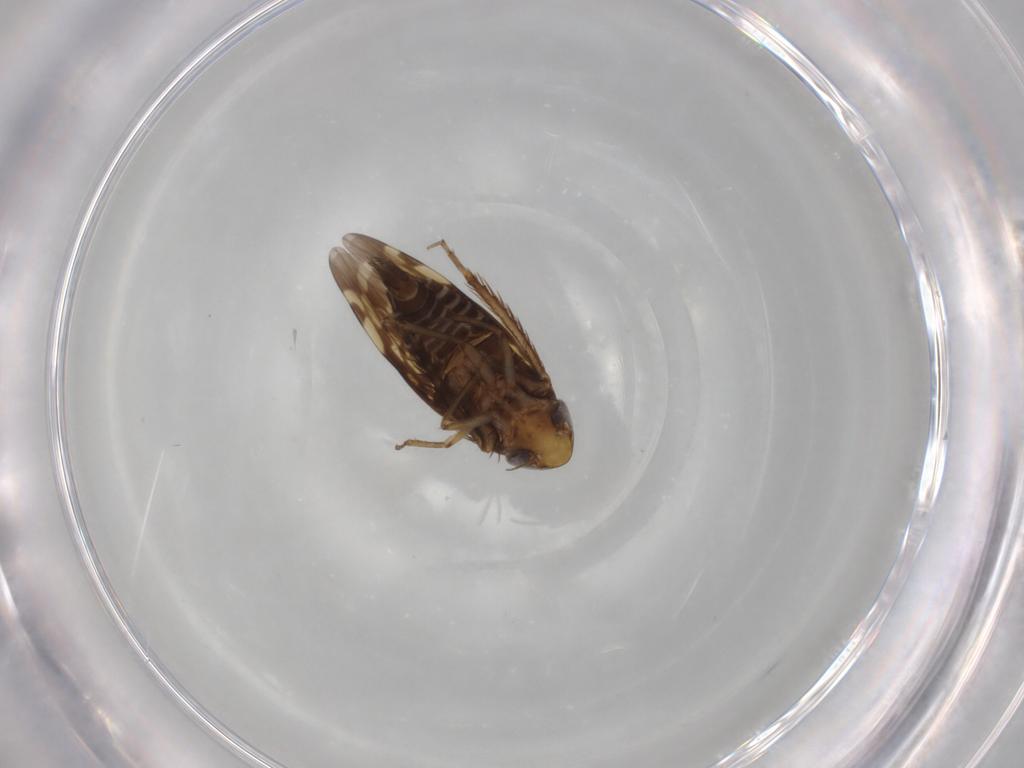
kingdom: Animalia
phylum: Arthropoda
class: Insecta
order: Hemiptera
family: Cicadellidae
